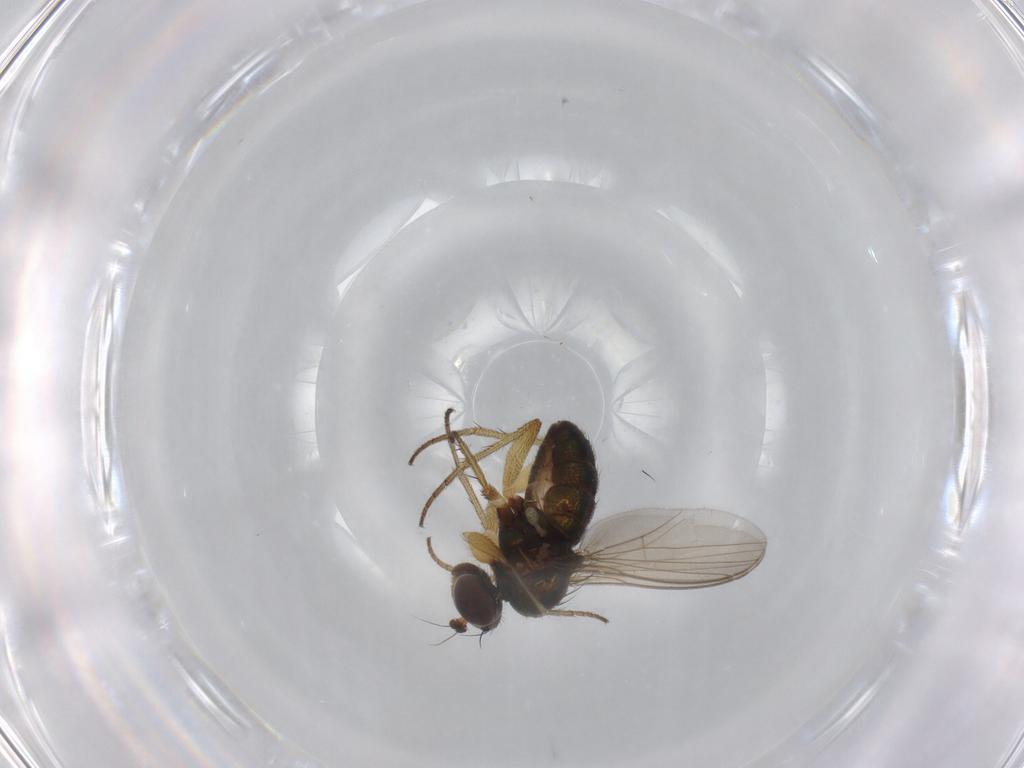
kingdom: Animalia
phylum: Arthropoda
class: Insecta
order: Diptera
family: Dolichopodidae
